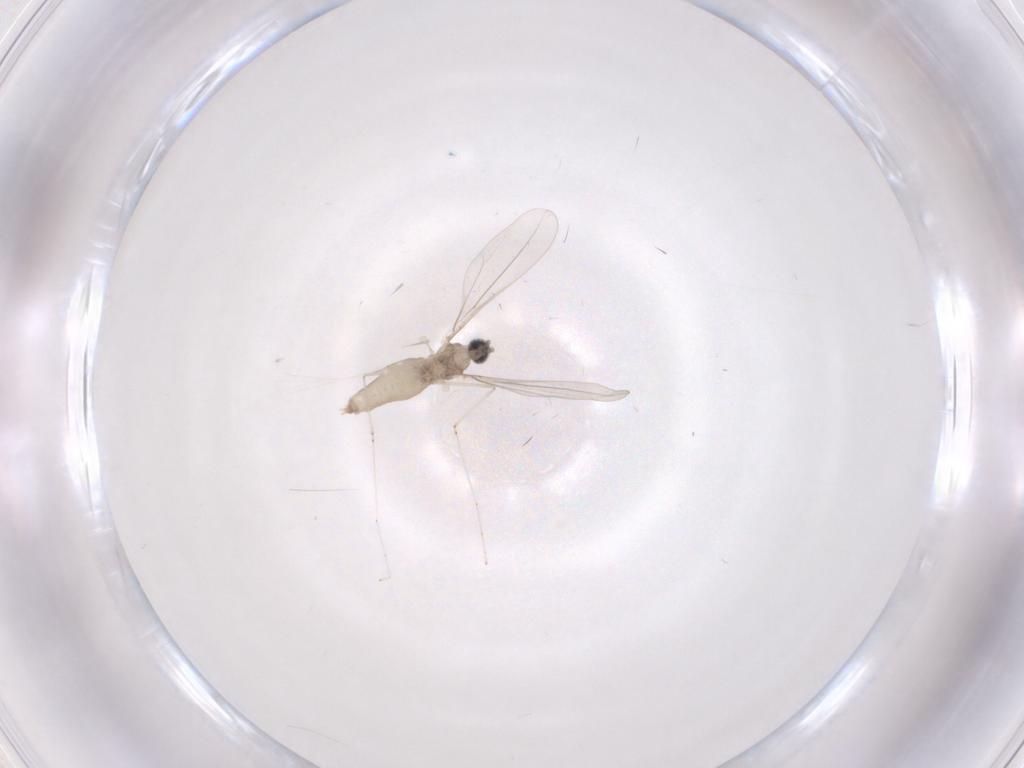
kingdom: Animalia
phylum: Arthropoda
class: Insecta
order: Diptera
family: Cecidomyiidae
